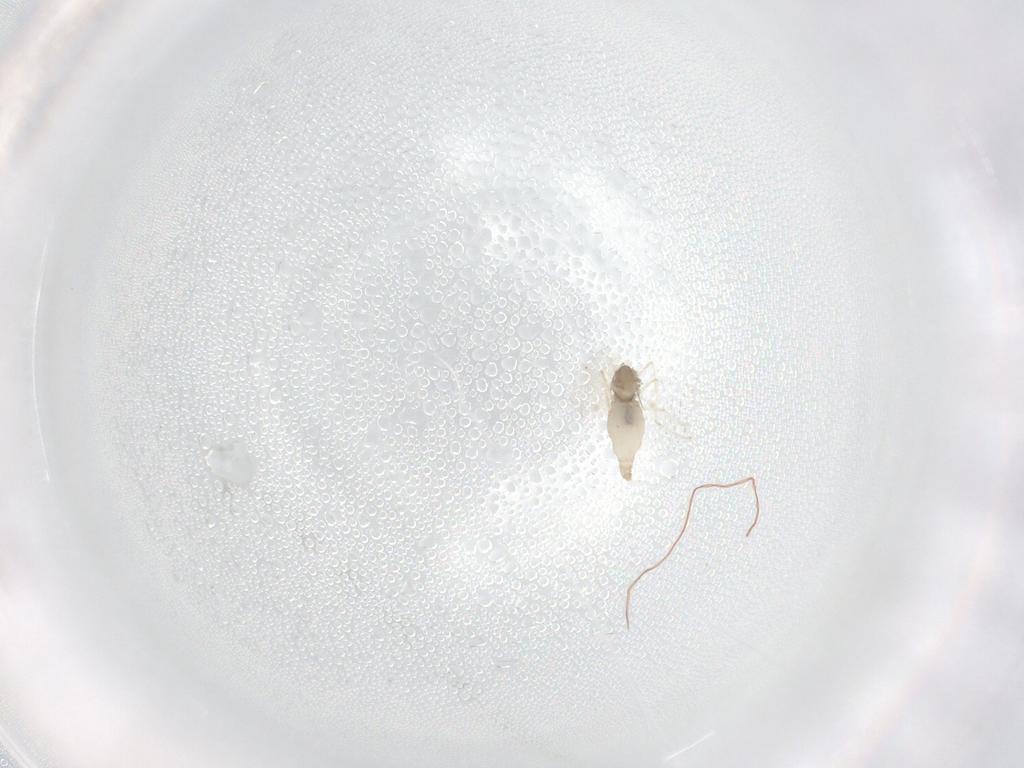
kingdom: Animalia
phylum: Arthropoda
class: Insecta
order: Diptera
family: Cecidomyiidae
